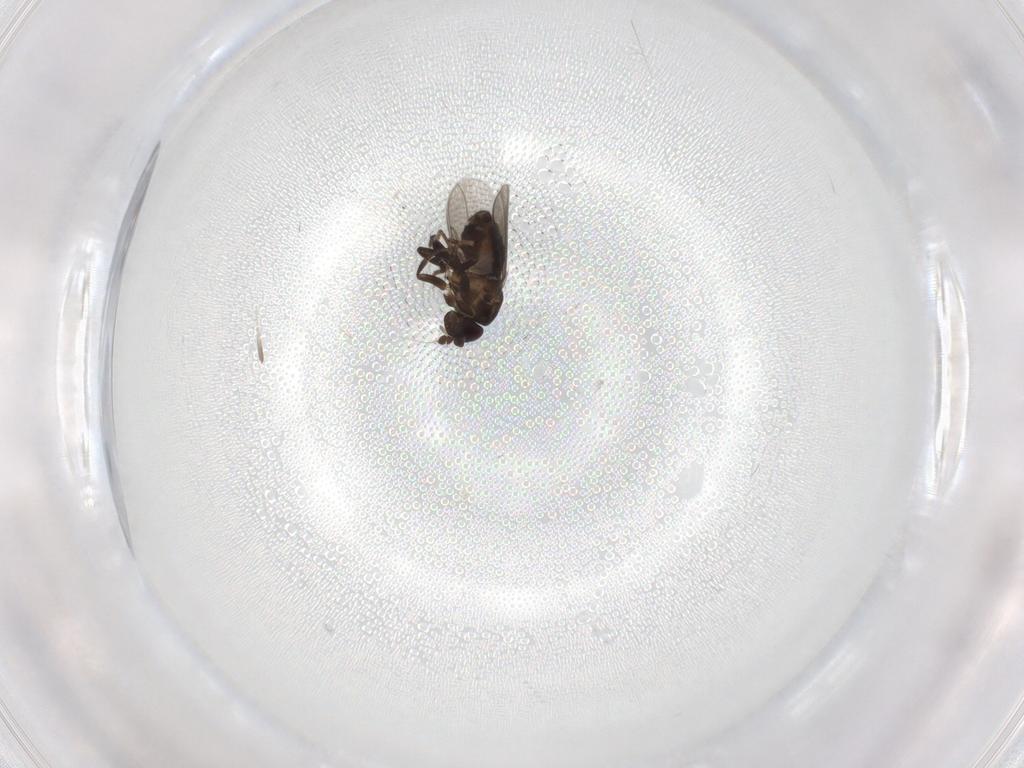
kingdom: Animalia
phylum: Arthropoda
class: Insecta
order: Diptera
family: Sphaeroceridae
